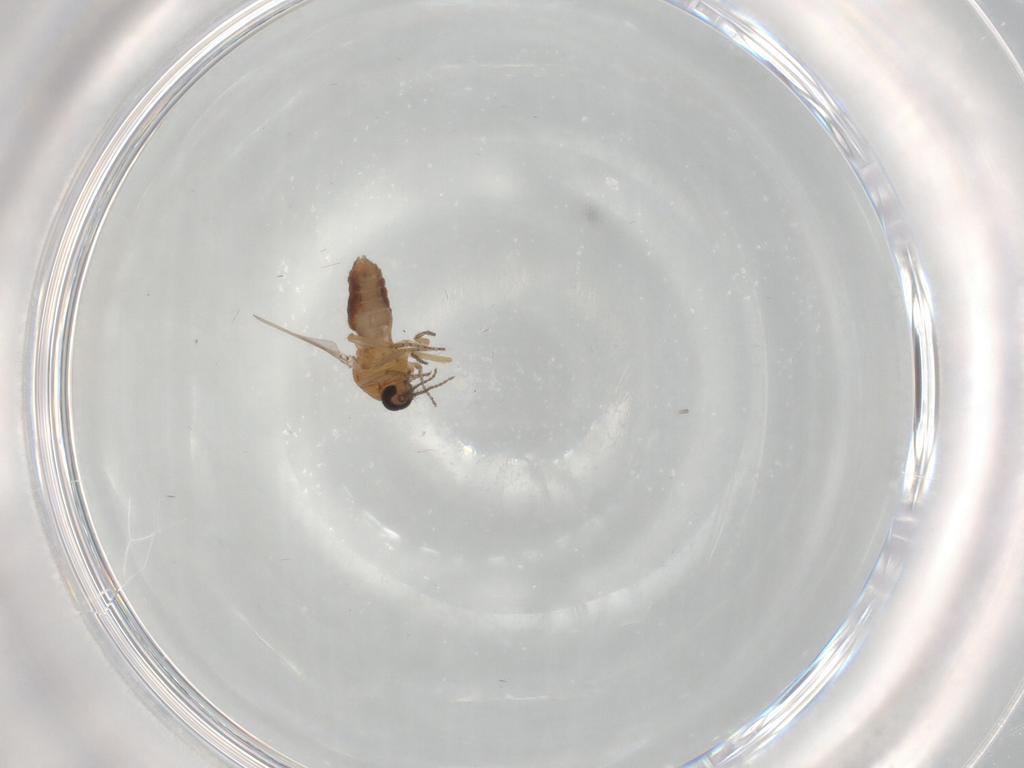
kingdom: Animalia
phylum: Arthropoda
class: Insecta
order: Diptera
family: Ceratopogonidae
